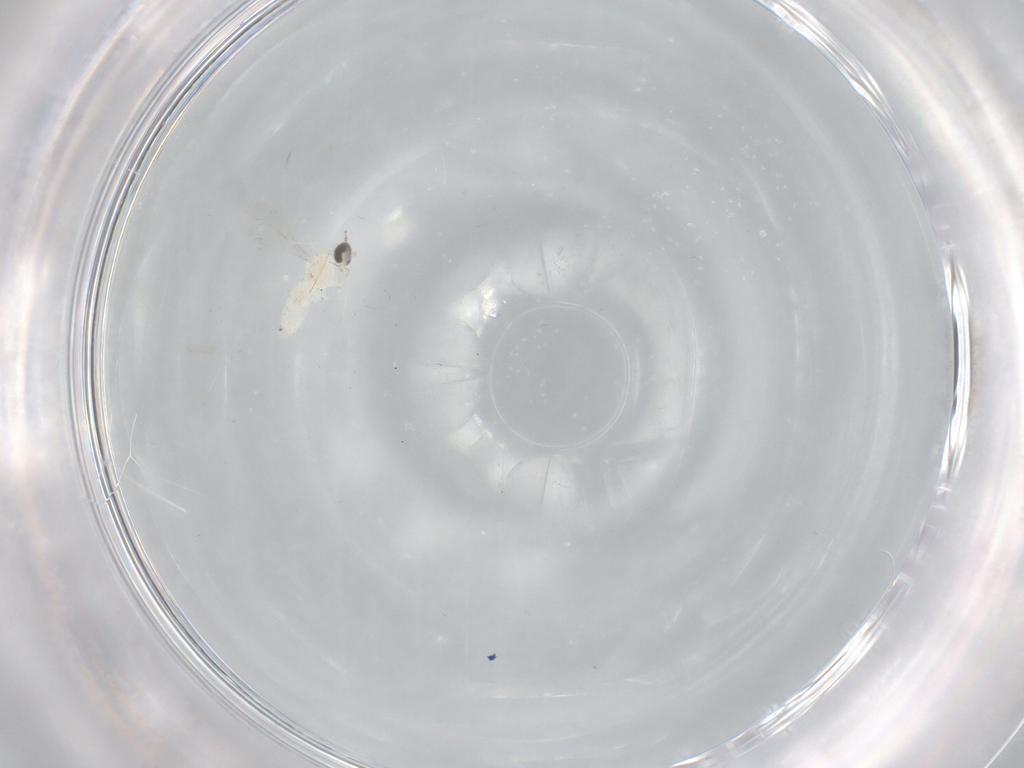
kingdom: Animalia
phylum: Arthropoda
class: Insecta
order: Diptera
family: Cecidomyiidae
